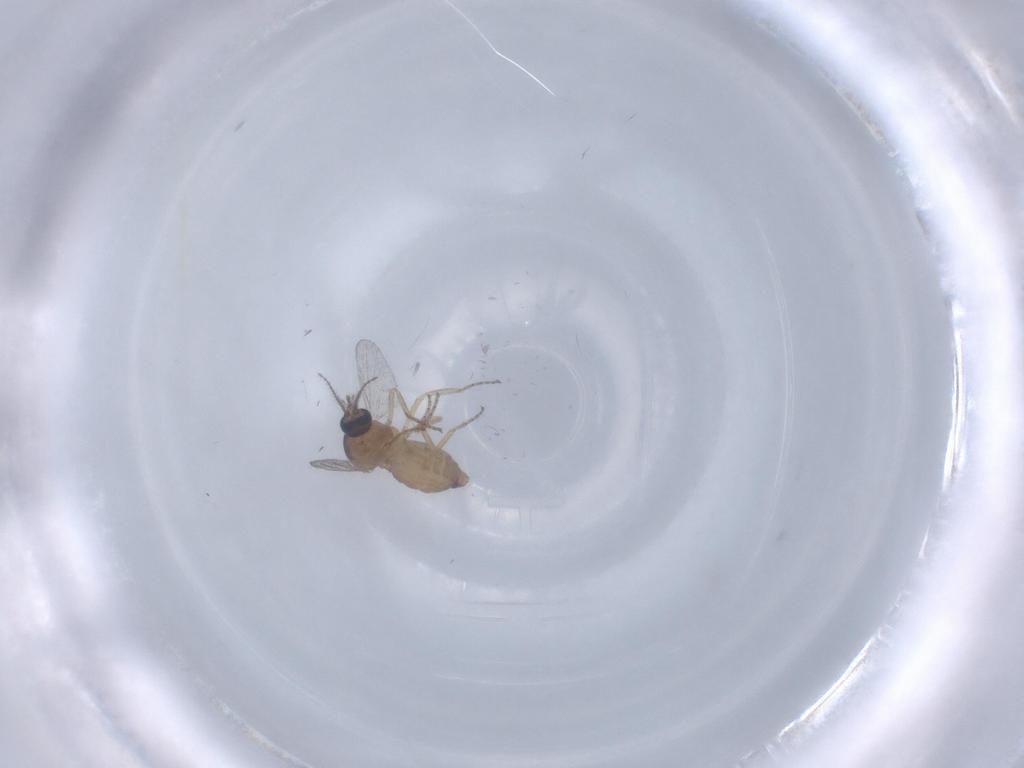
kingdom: Animalia
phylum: Arthropoda
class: Insecta
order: Diptera
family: Ceratopogonidae
